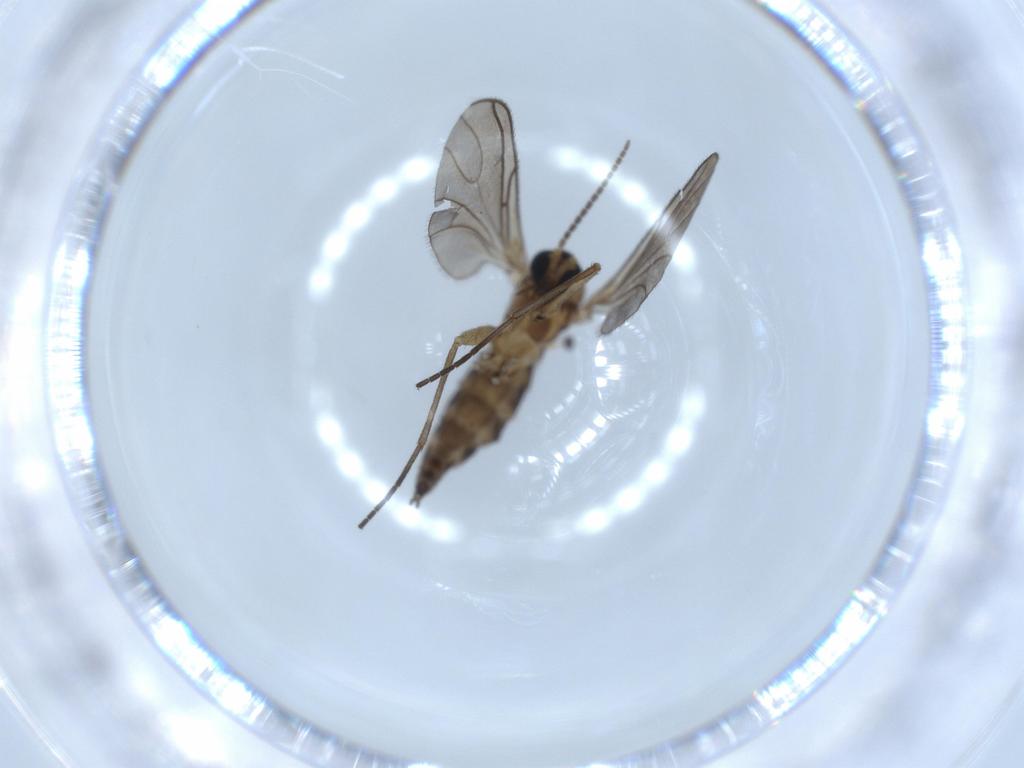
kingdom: Animalia
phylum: Arthropoda
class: Insecta
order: Diptera
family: Sciaridae
